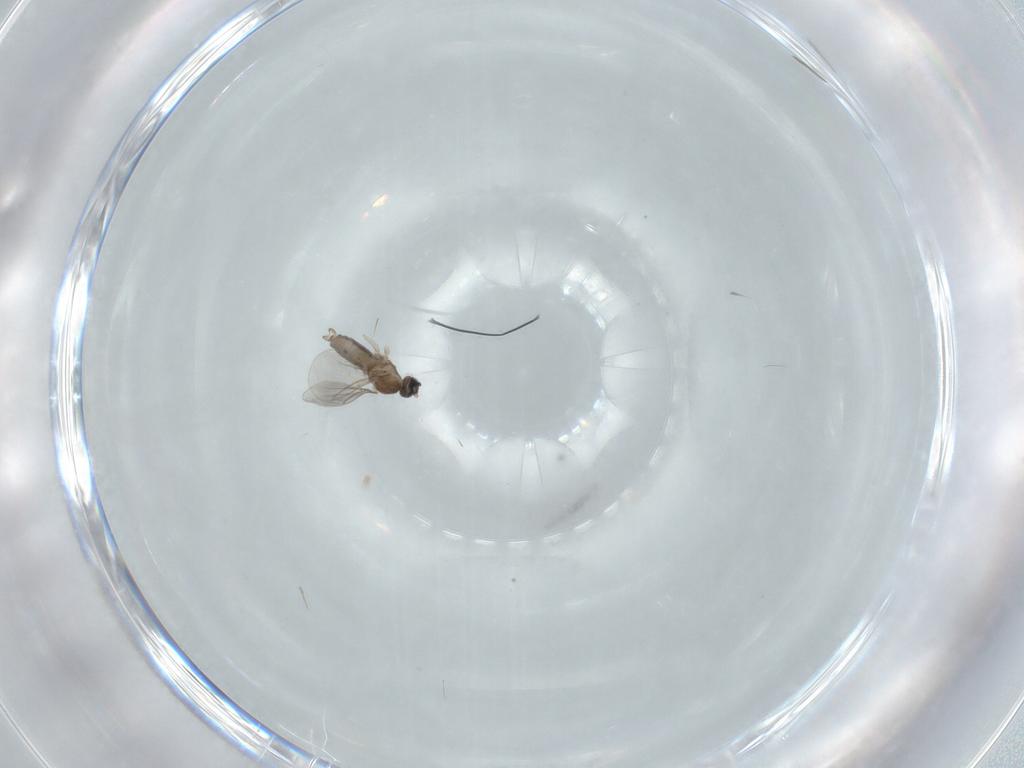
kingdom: Animalia
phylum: Arthropoda
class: Insecta
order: Diptera
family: Cecidomyiidae
